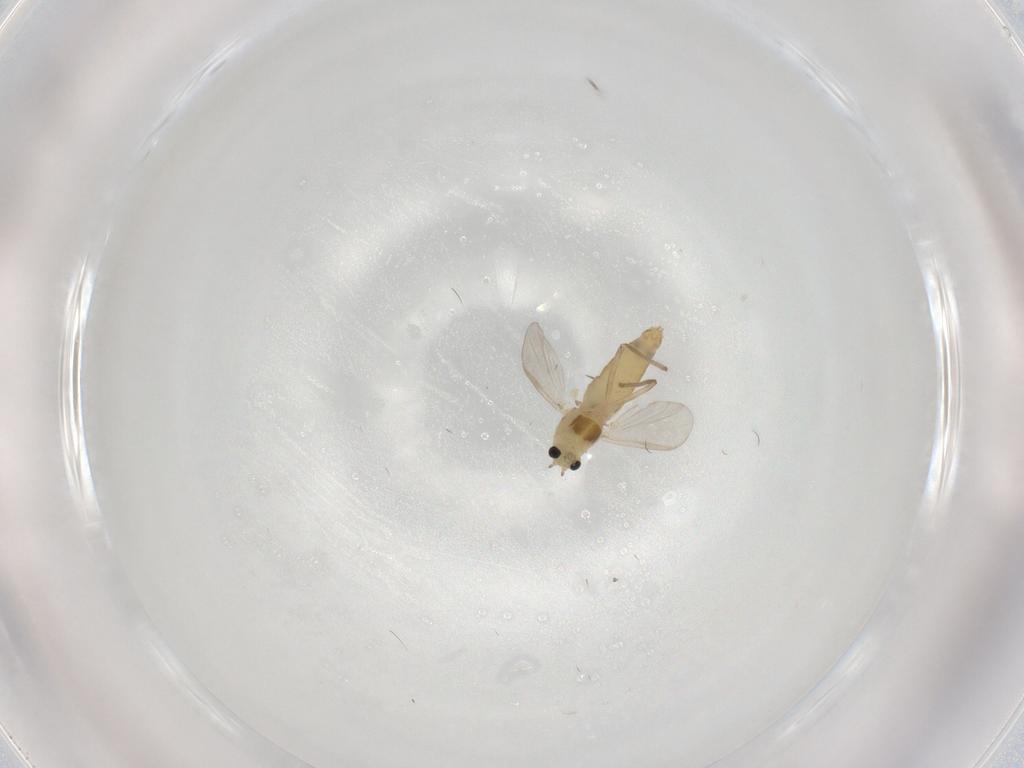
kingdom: Animalia
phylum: Arthropoda
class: Insecta
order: Diptera
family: Chironomidae
